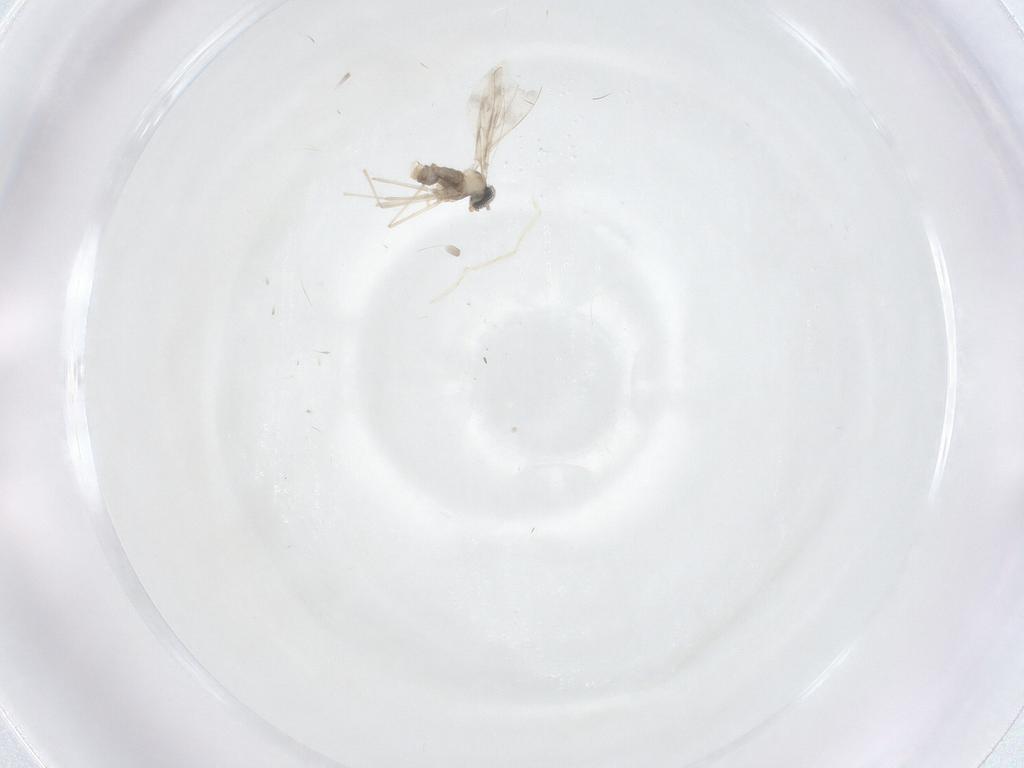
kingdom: Animalia
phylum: Arthropoda
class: Insecta
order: Diptera
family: Cecidomyiidae
